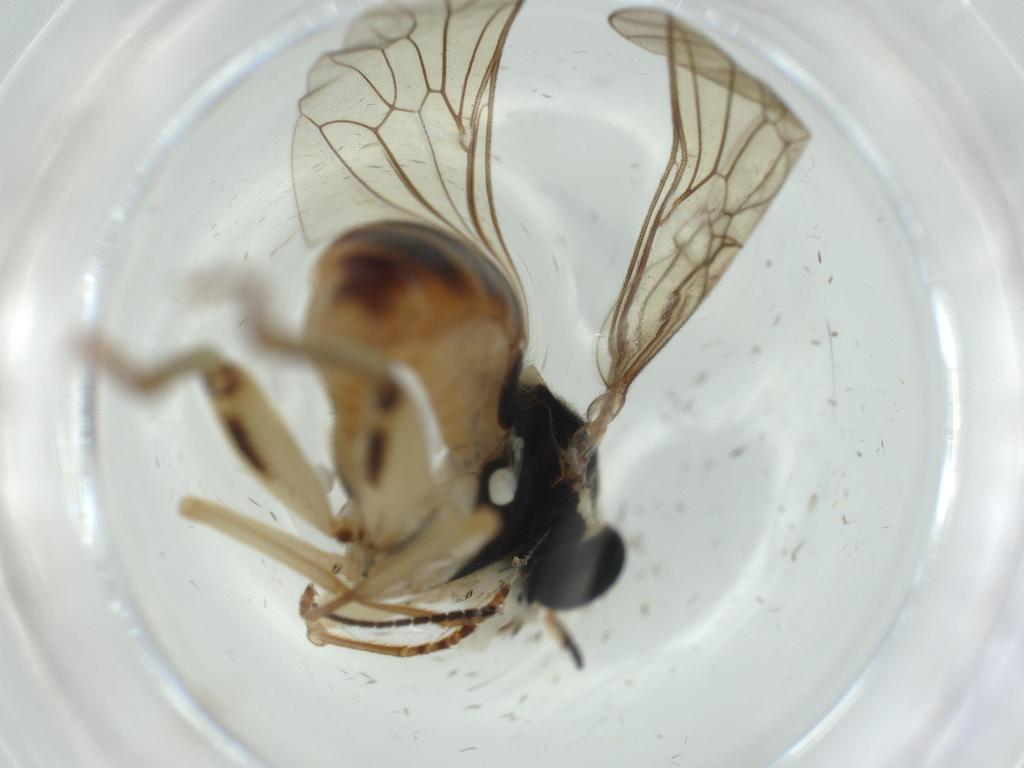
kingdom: Animalia
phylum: Arthropoda
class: Insecta
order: Diptera
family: Xylomyidae
